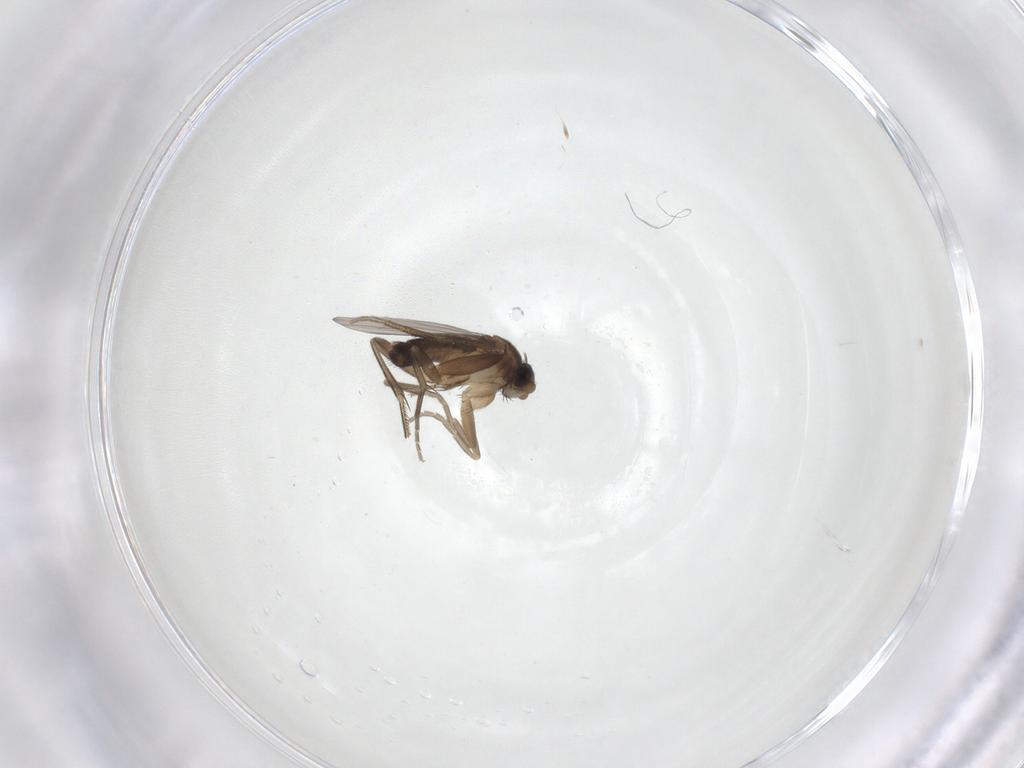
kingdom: Animalia
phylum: Arthropoda
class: Insecta
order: Diptera
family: Phoridae
